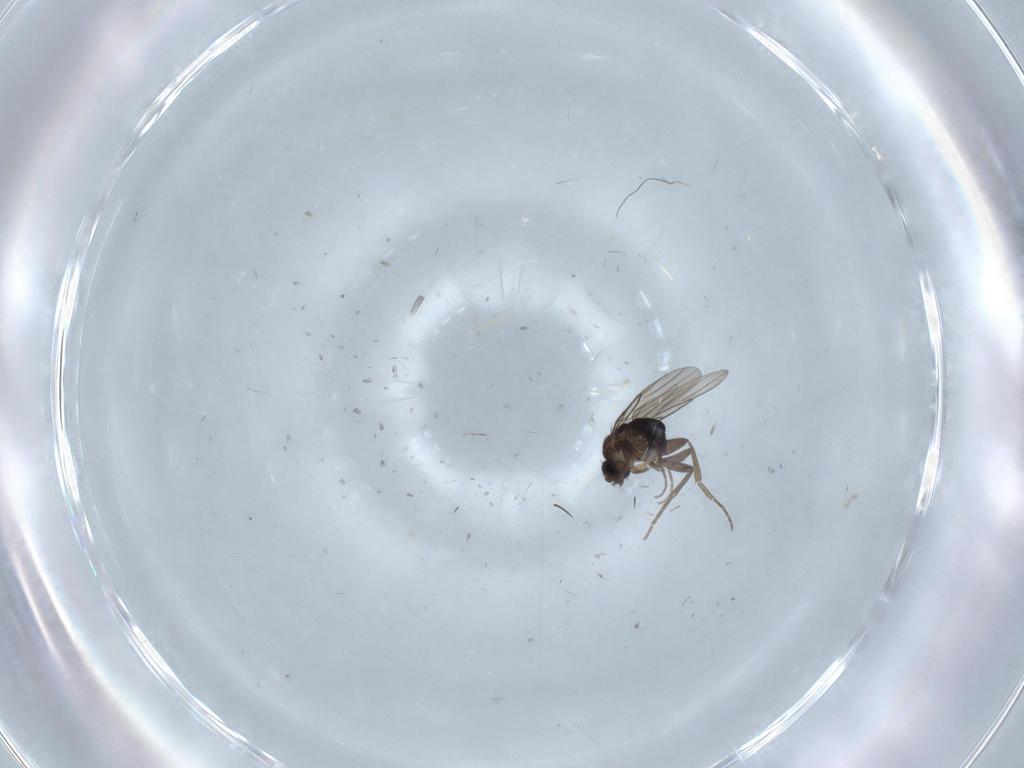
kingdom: Animalia
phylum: Arthropoda
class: Insecta
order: Diptera
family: Phoridae
